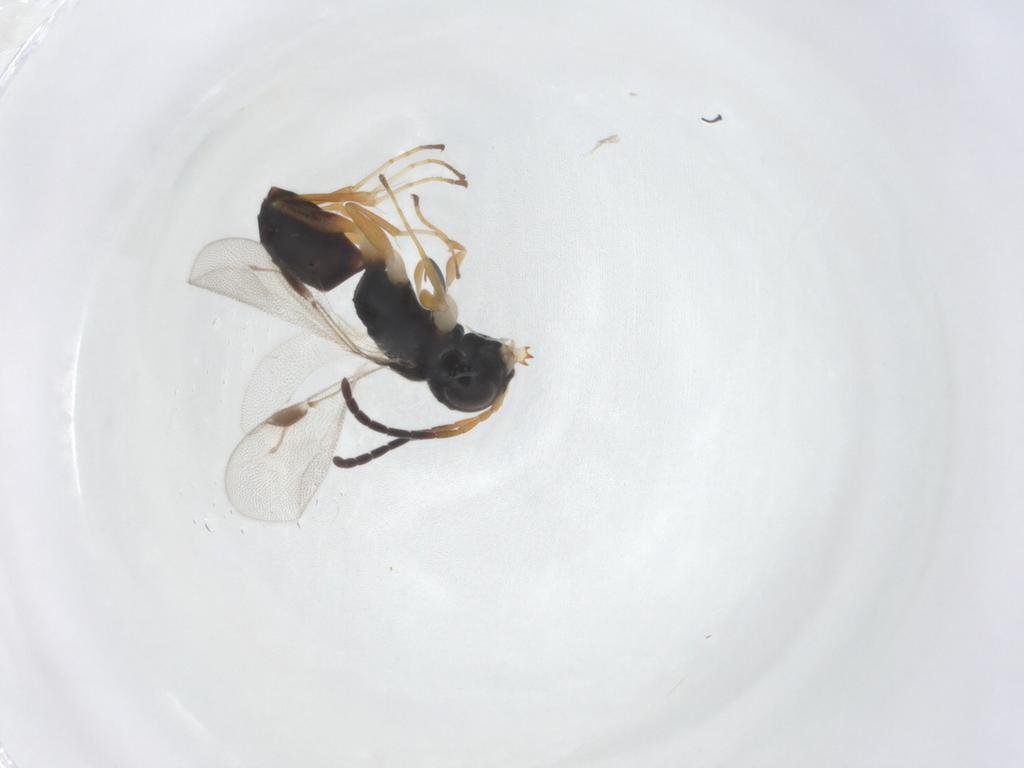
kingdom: Animalia
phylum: Arthropoda
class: Insecta
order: Hymenoptera
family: Dryinidae
